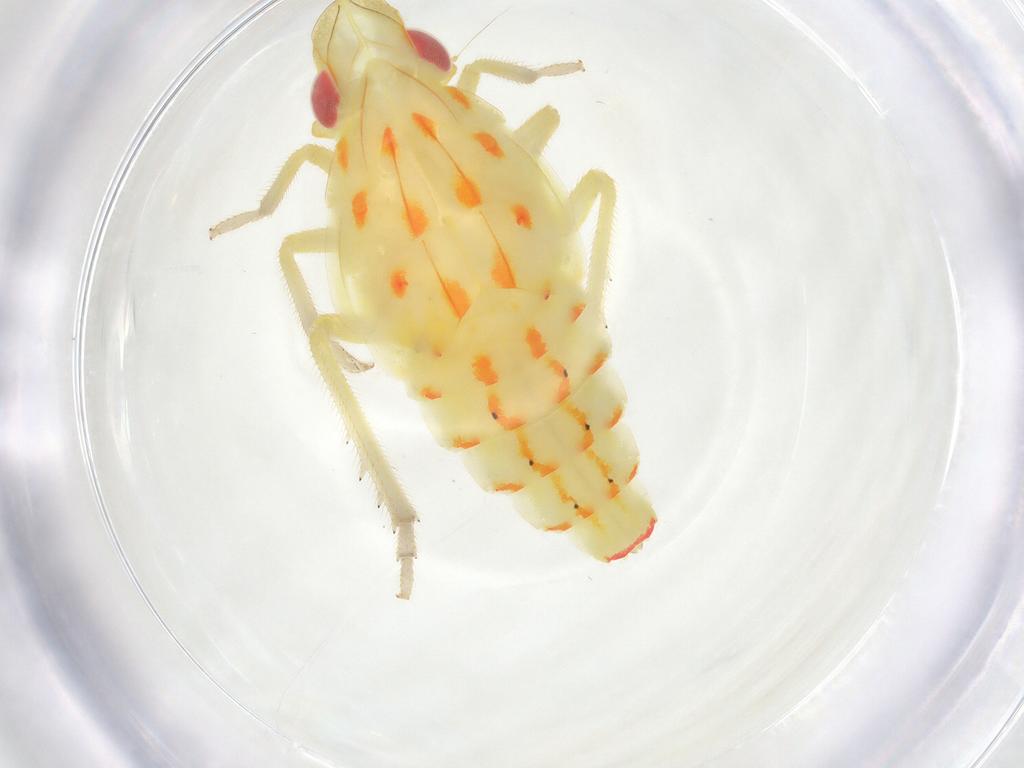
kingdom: Animalia
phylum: Arthropoda
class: Insecta
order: Hemiptera
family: Tropiduchidae
